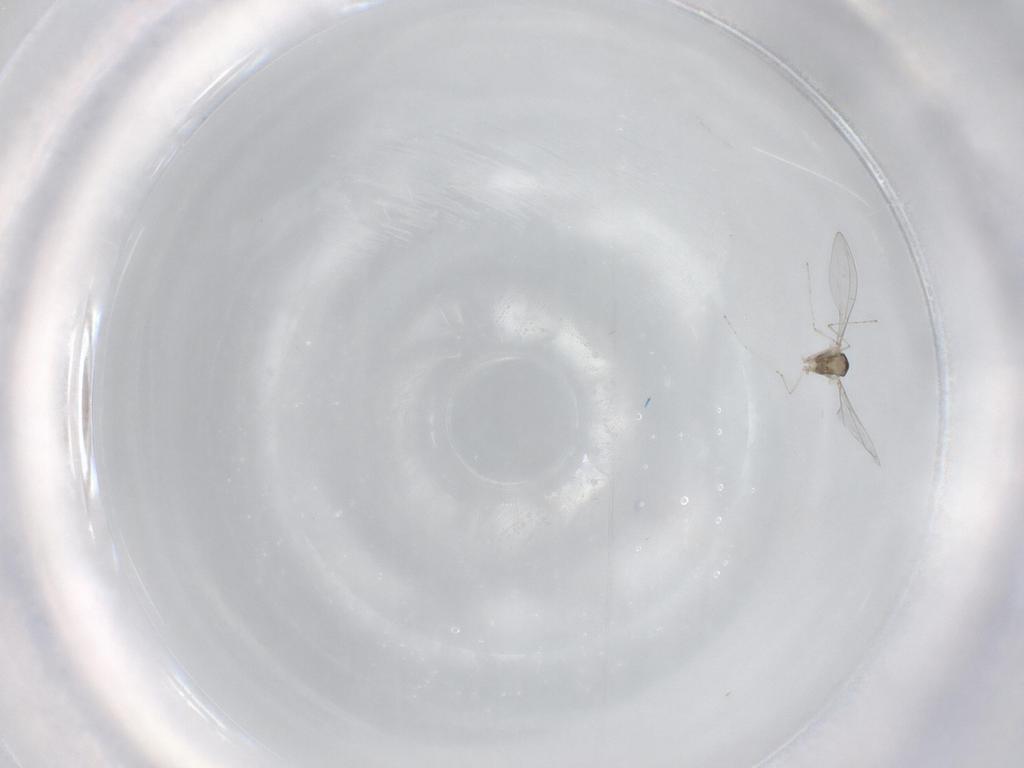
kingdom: Animalia
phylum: Arthropoda
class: Insecta
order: Diptera
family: Cecidomyiidae
